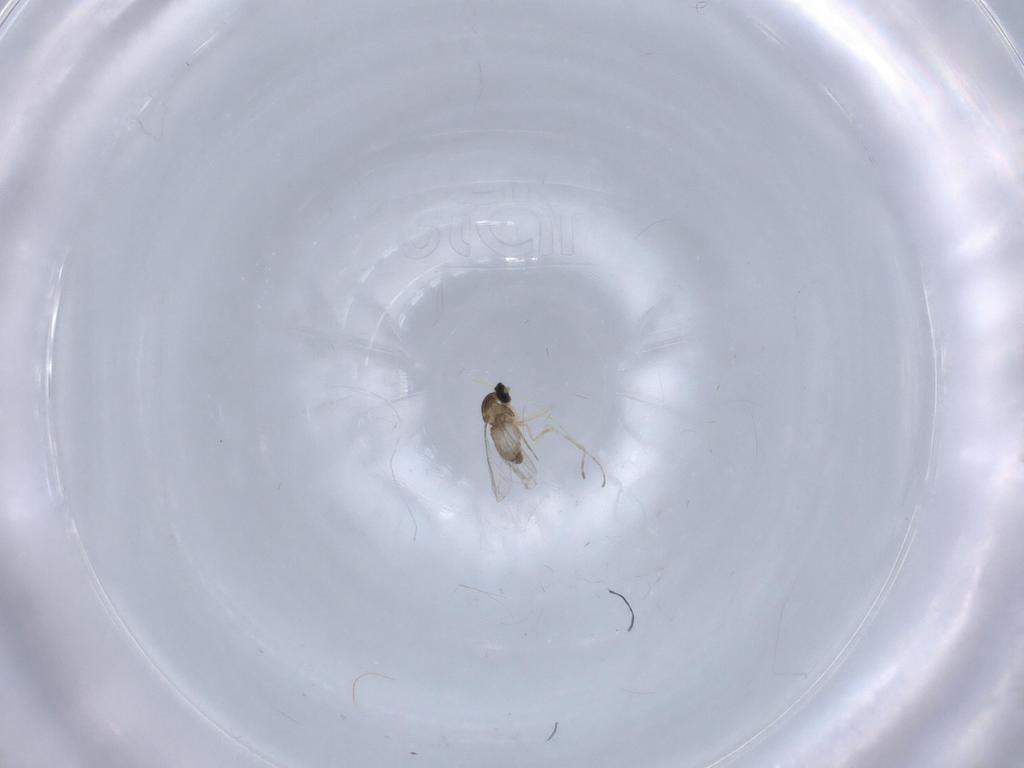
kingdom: Animalia
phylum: Arthropoda
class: Insecta
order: Diptera
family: Cecidomyiidae
